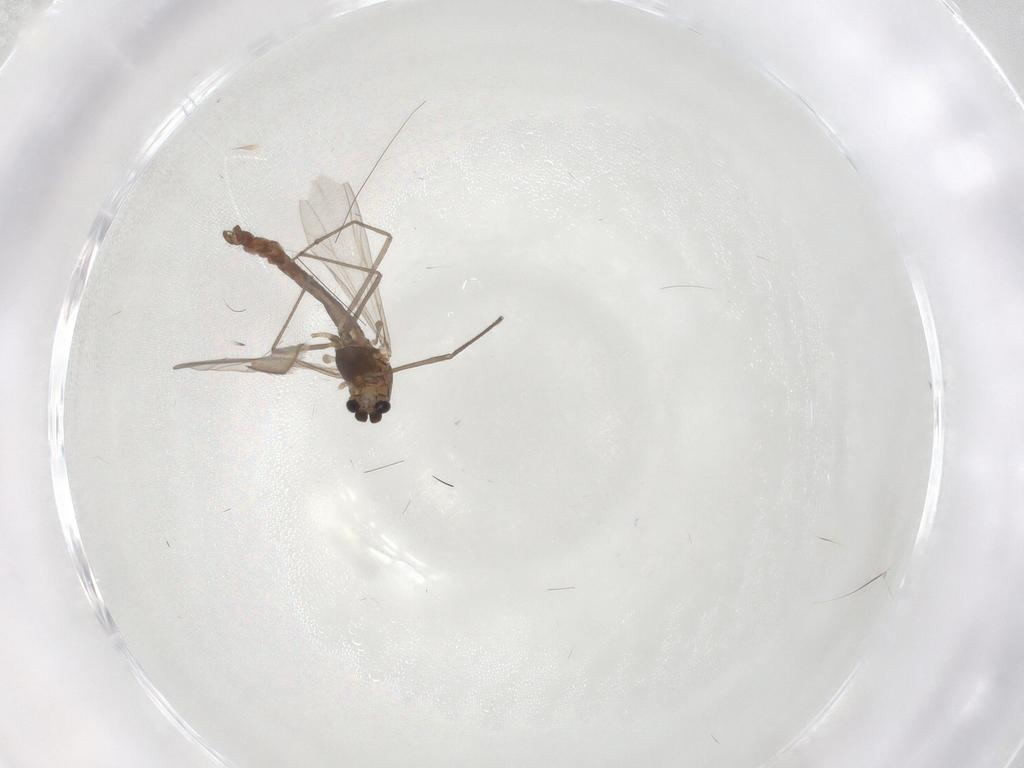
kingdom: Animalia
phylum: Arthropoda
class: Insecta
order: Diptera
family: Chironomidae
